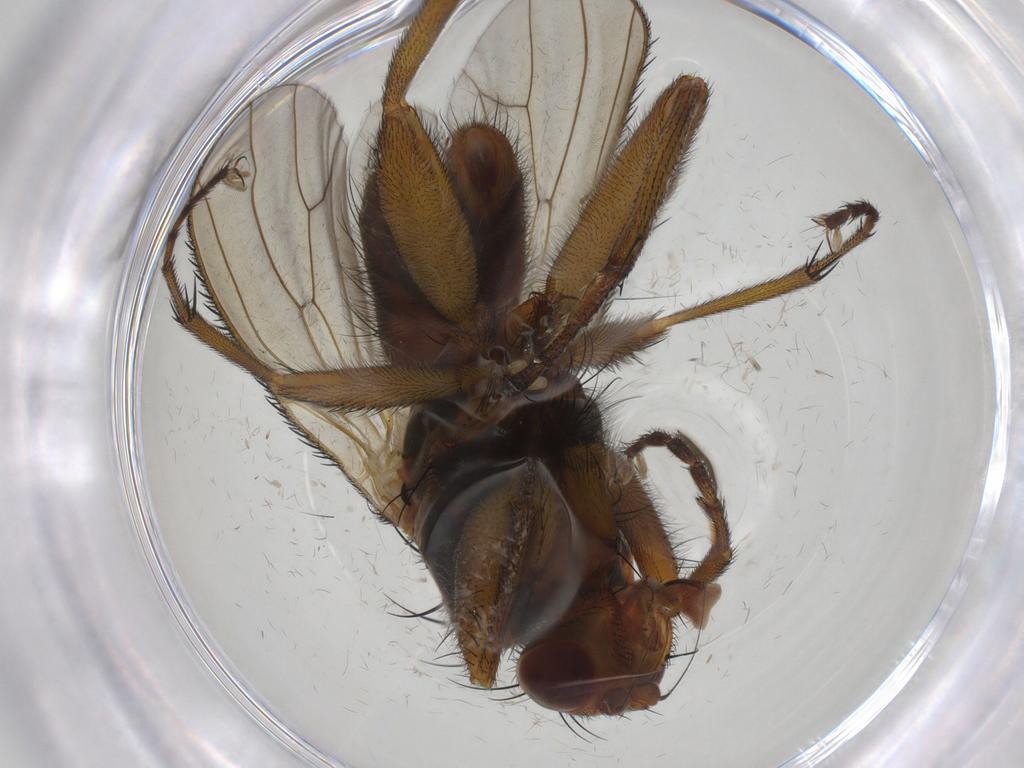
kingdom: Animalia
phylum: Arthropoda
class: Insecta
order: Diptera
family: Heleomyzidae
